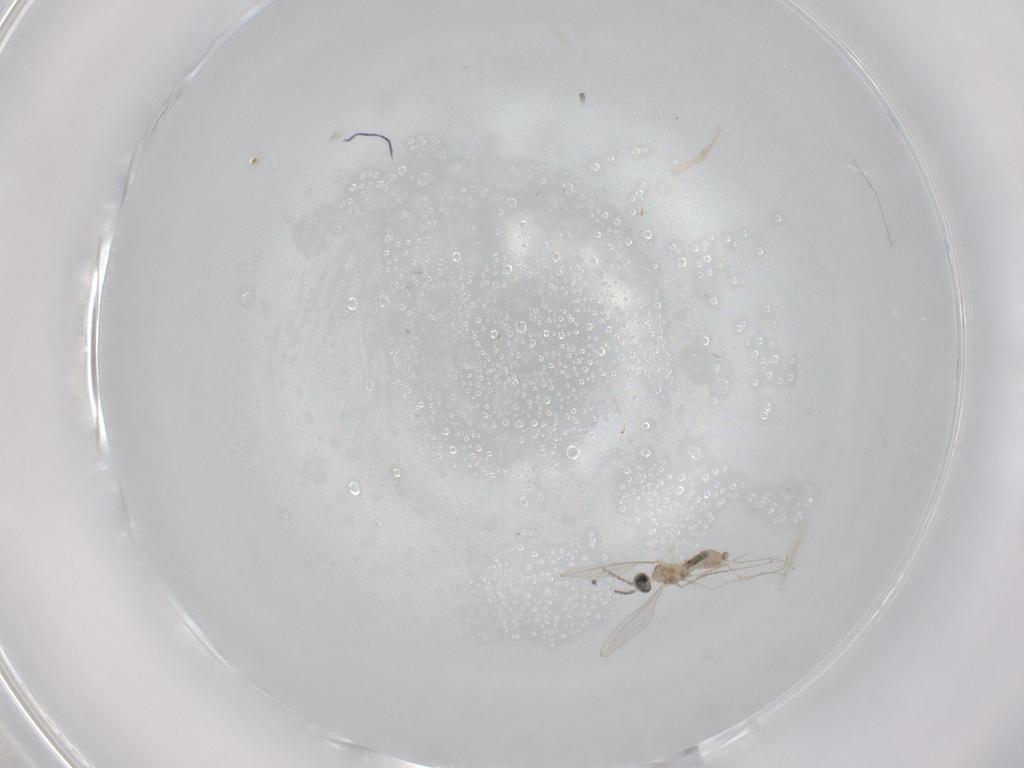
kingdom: Animalia
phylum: Arthropoda
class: Insecta
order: Diptera
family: Cecidomyiidae
